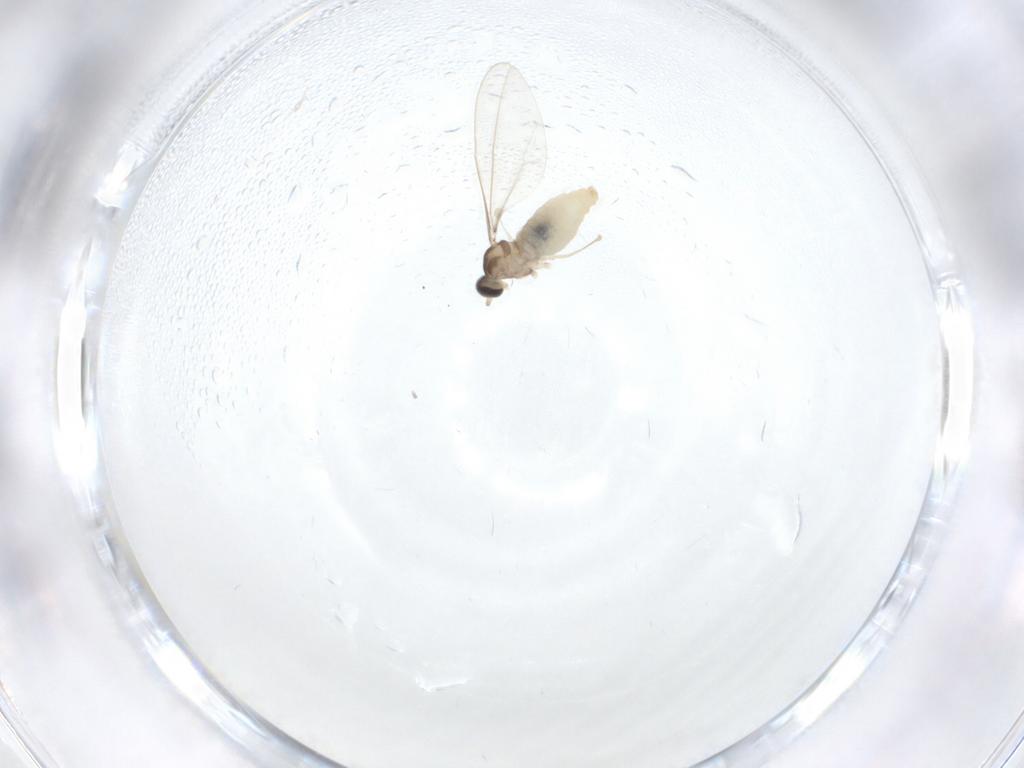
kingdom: Animalia
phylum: Arthropoda
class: Insecta
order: Diptera
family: Cecidomyiidae
